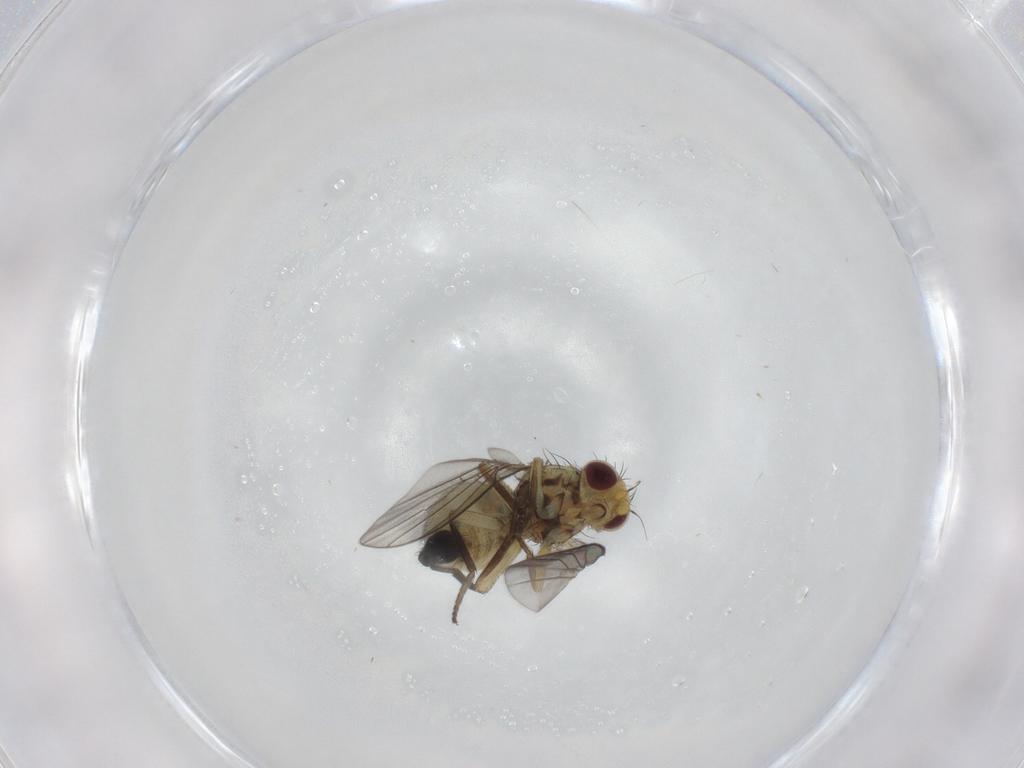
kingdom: Animalia
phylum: Arthropoda
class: Insecta
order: Diptera
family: Agromyzidae
